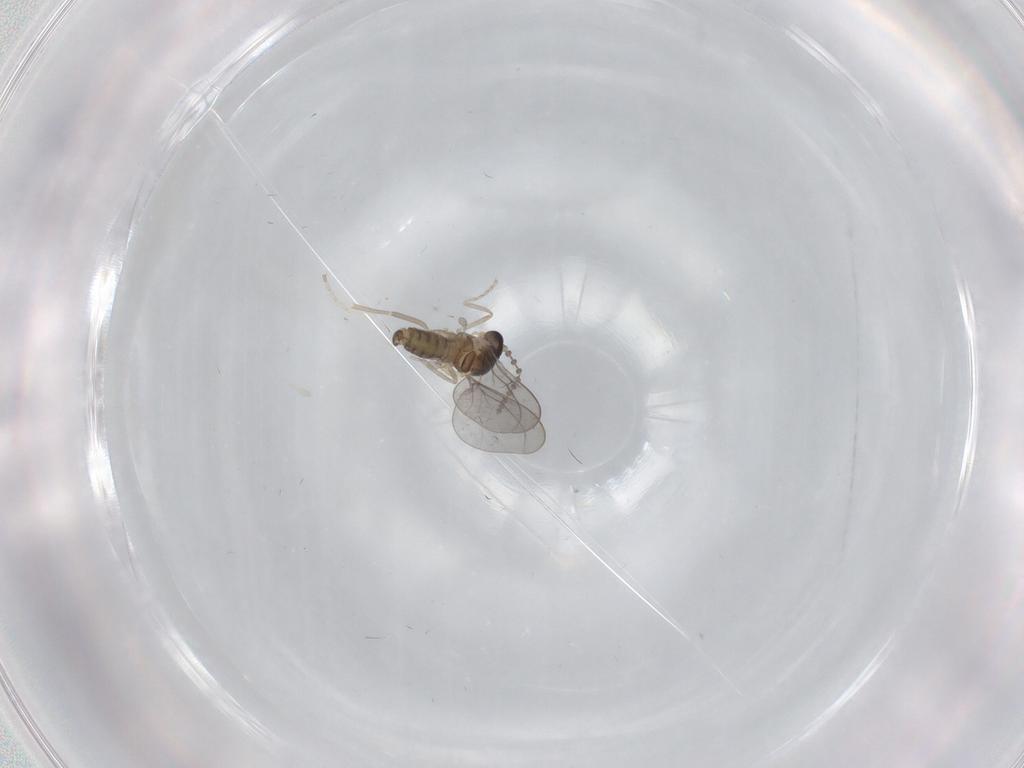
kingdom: Animalia
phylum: Arthropoda
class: Insecta
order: Diptera
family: Cecidomyiidae
